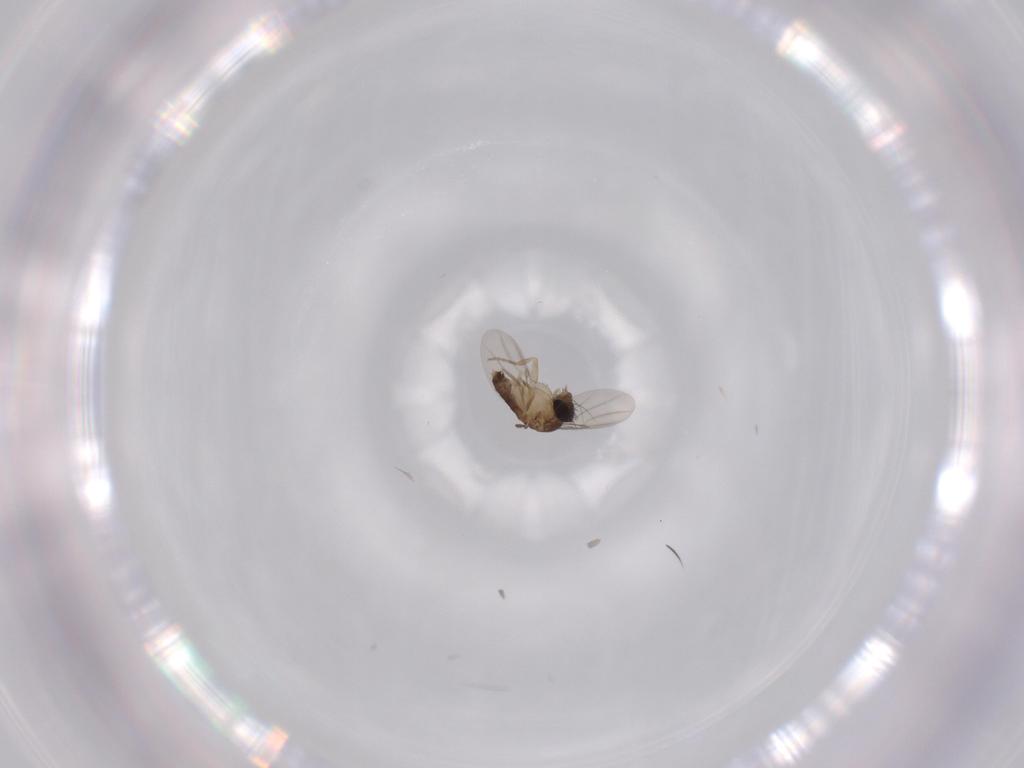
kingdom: Animalia
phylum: Arthropoda
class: Insecta
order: Diptera
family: Phoridae
